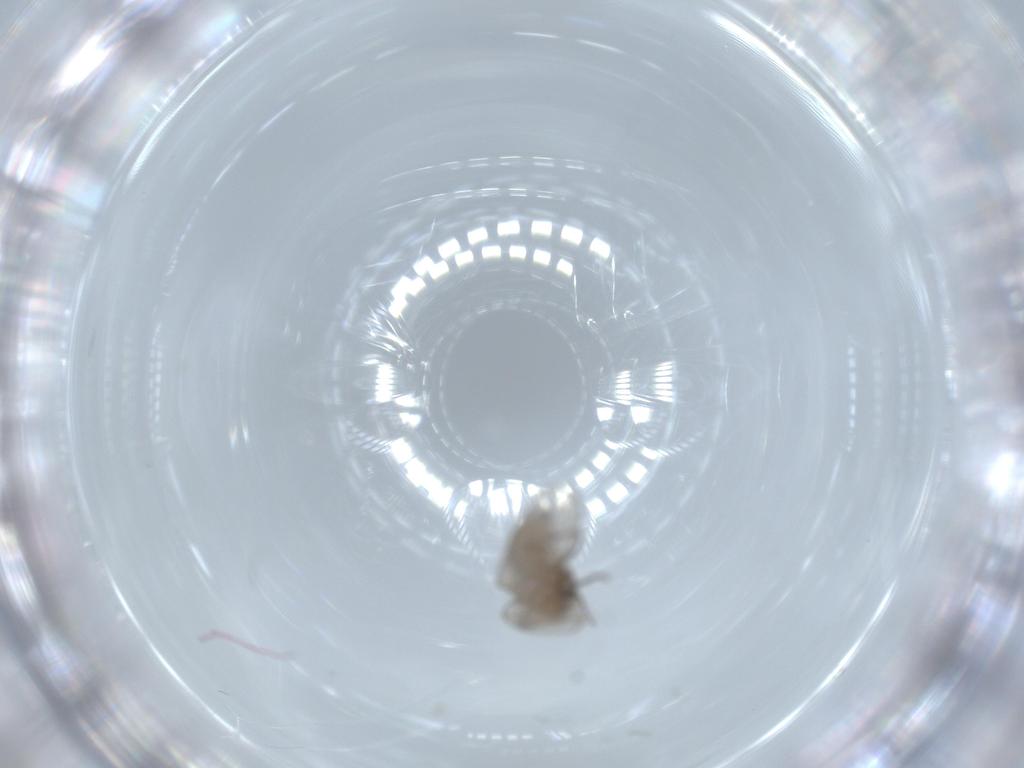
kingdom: Animalia
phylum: Arthropoda
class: Insecta
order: Diptera
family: Psychodidae
